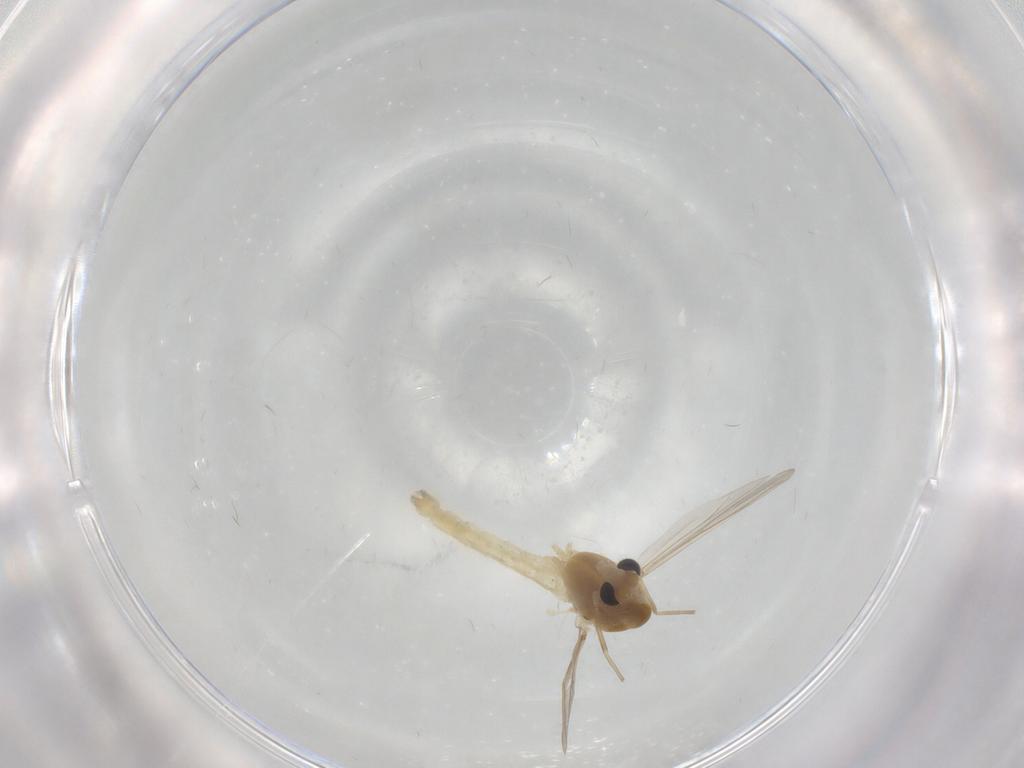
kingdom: Animalia
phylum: Arthropoda
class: Insecta
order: Diptera
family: Chironomidae
